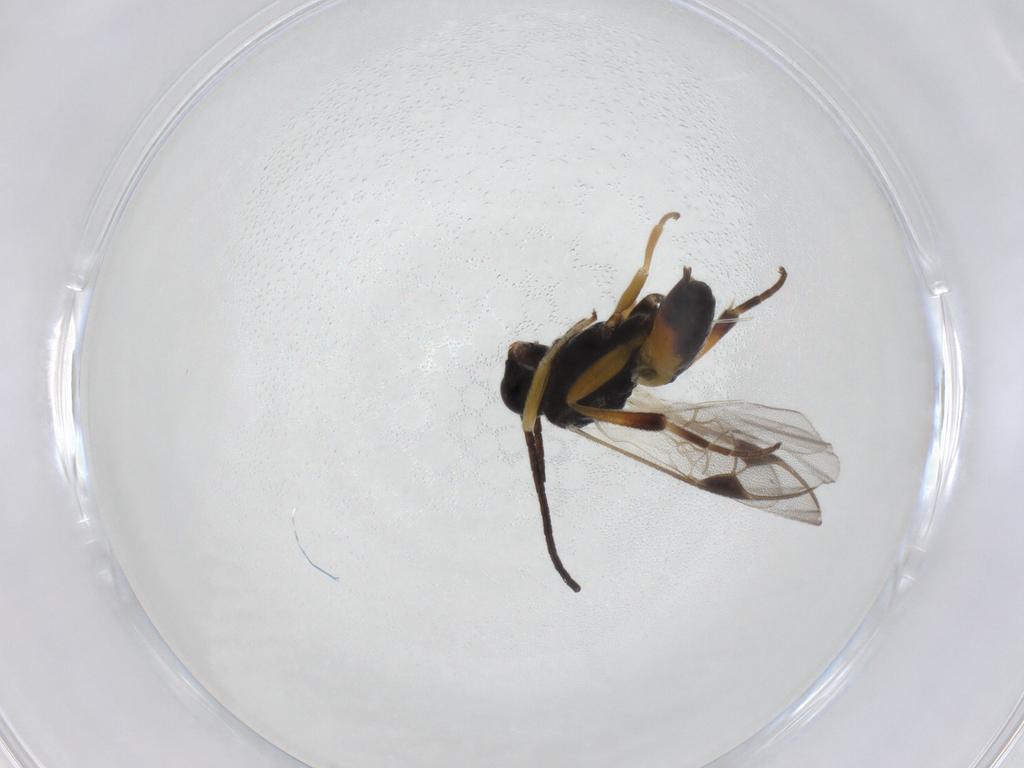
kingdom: Animalia
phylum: Arthropoda
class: Insecta
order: Hymenoptera
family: Braconidae
